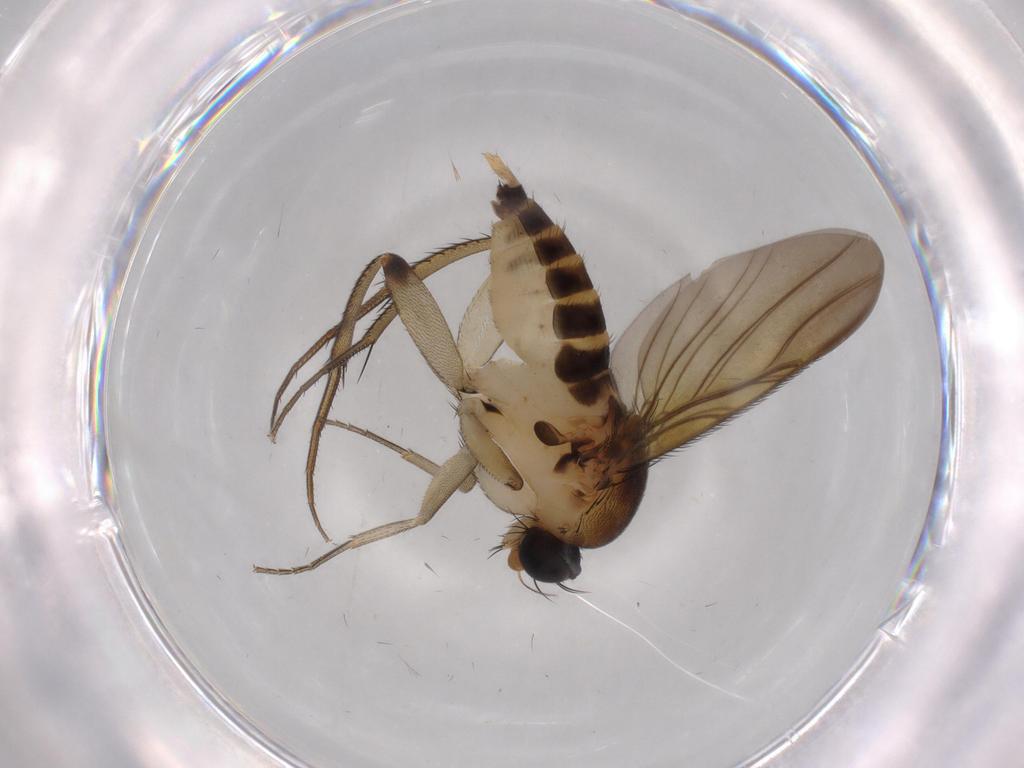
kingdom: Animalia
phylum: Arthropoda
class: Insecta
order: Diptera
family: Phoridae
